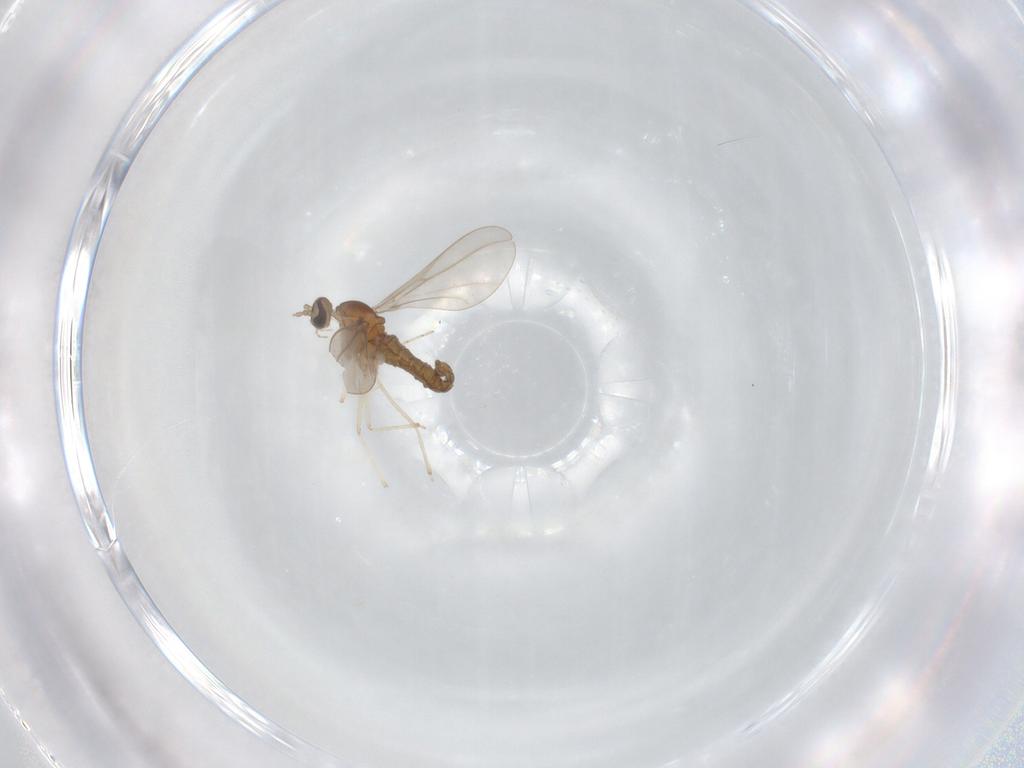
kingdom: Animalia
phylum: Arthropoda
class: Insecta
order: Diptera
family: Cecidomyiidae
